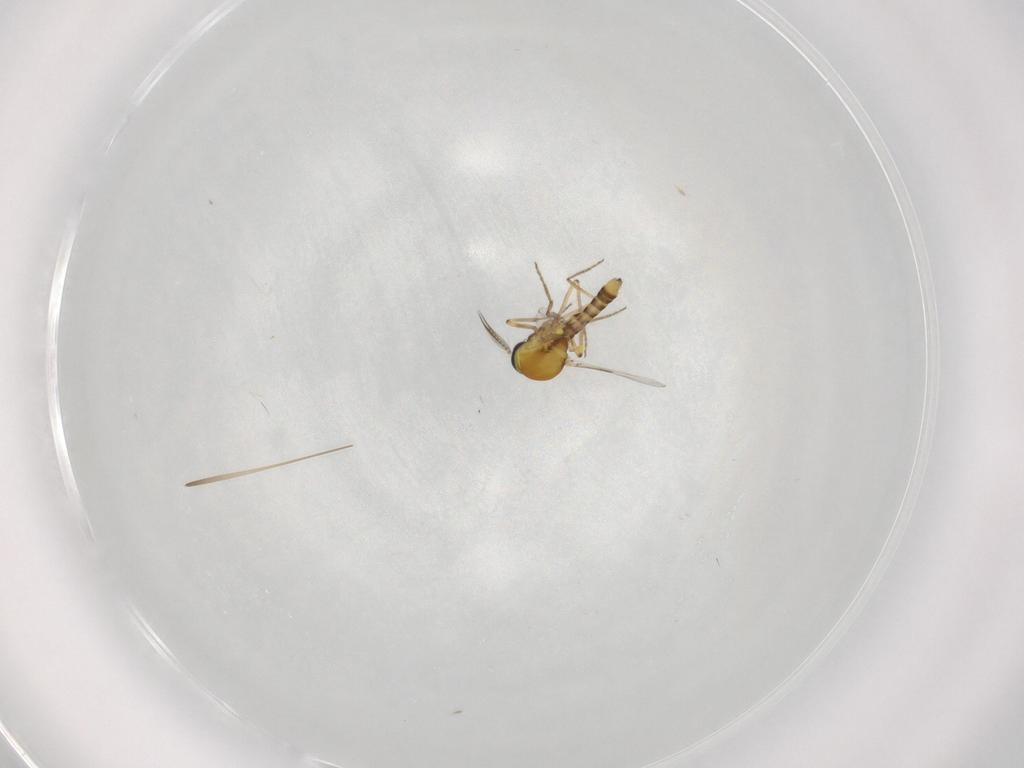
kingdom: Animalia
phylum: Arthropoda
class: Insecta
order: Diptera
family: Ceratopogonidae
